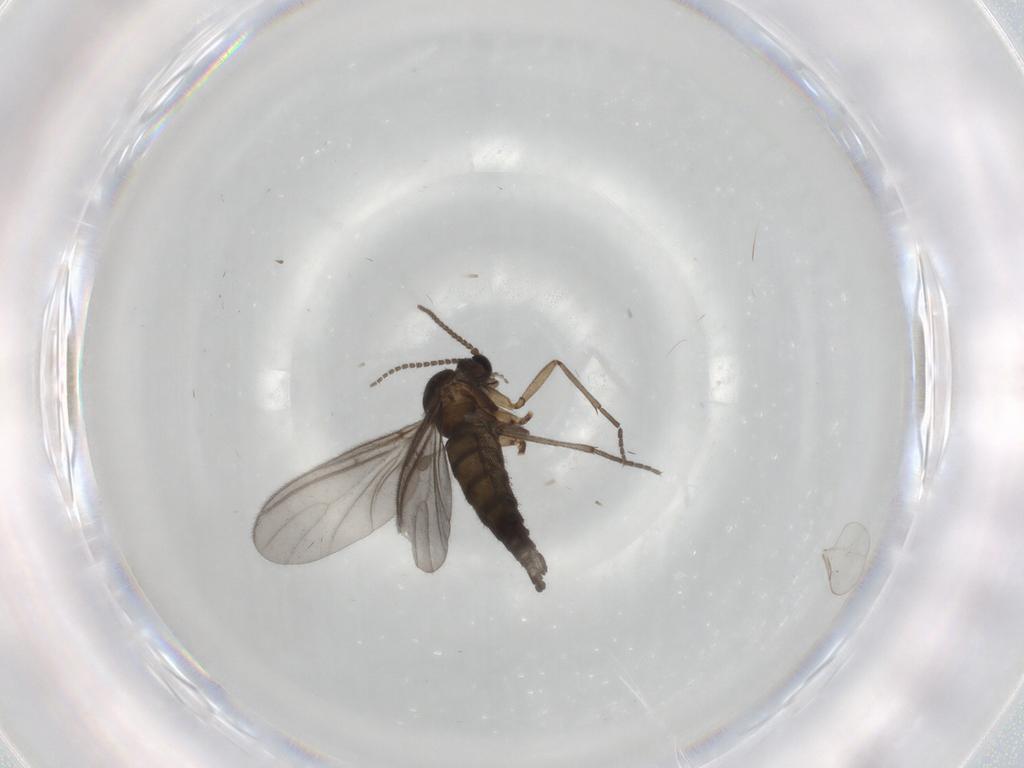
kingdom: Animalia
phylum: Arthropoda
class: Insecta
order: Diptera
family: Sciaridae
